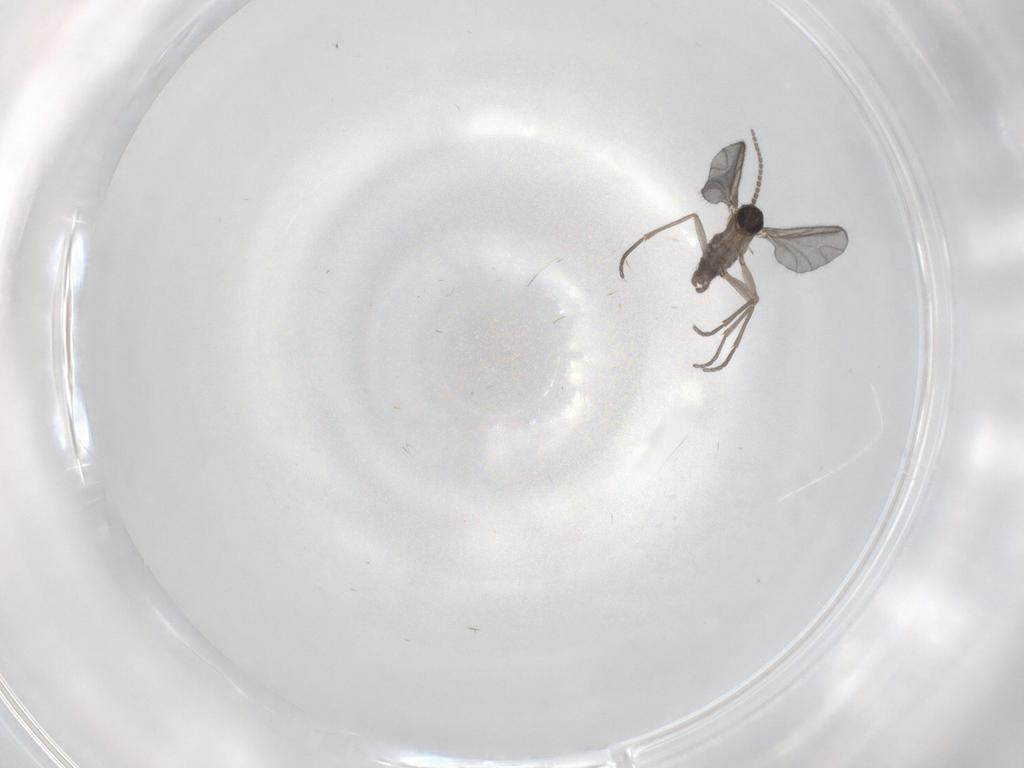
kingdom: Animalia
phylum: Arthropoda
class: Insecta
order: Diptera
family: Sciaridae
